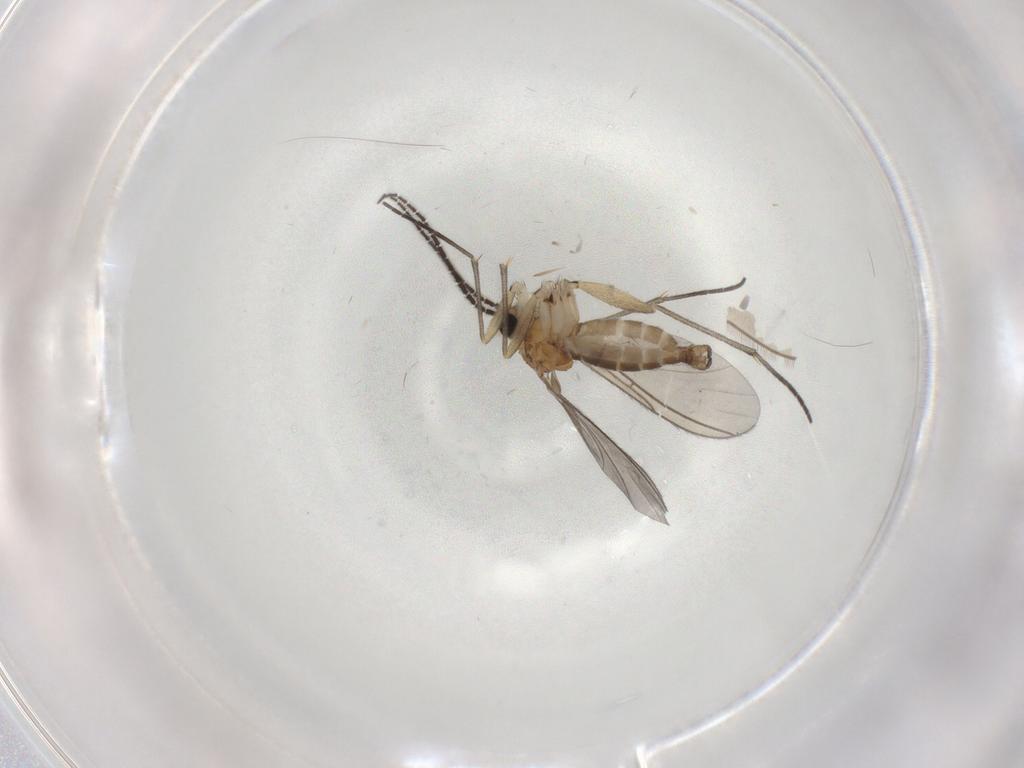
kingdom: Animalia
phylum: Arthropoda
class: Insecta
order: Diptera
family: Sciaridae
